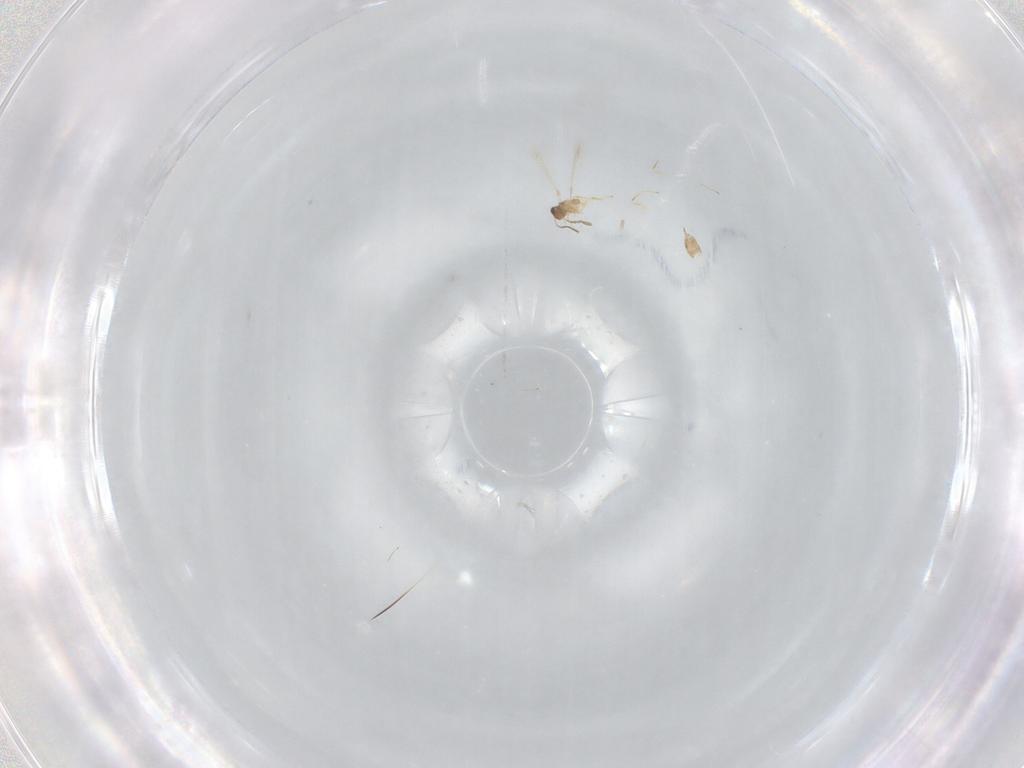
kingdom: Animalia
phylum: Arthropoda
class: Insecta
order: Hymenoptera
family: Mymaridae
